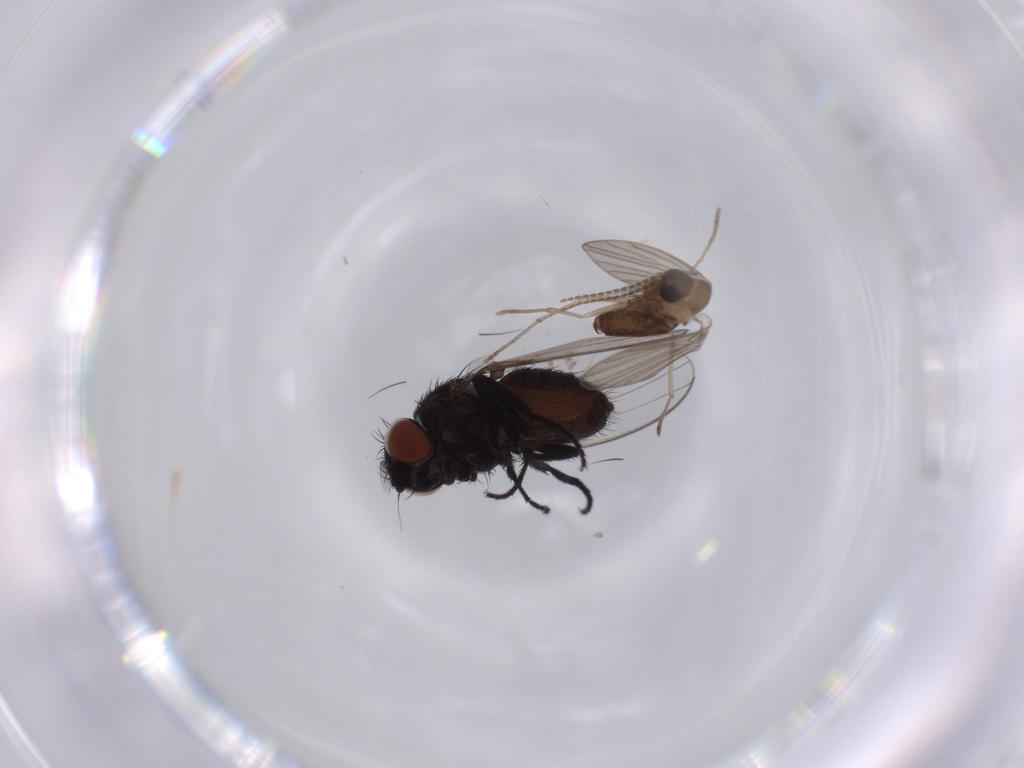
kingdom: Animalia
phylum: Arthropoda
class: Insecta
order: Diptera
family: Milichiidae
